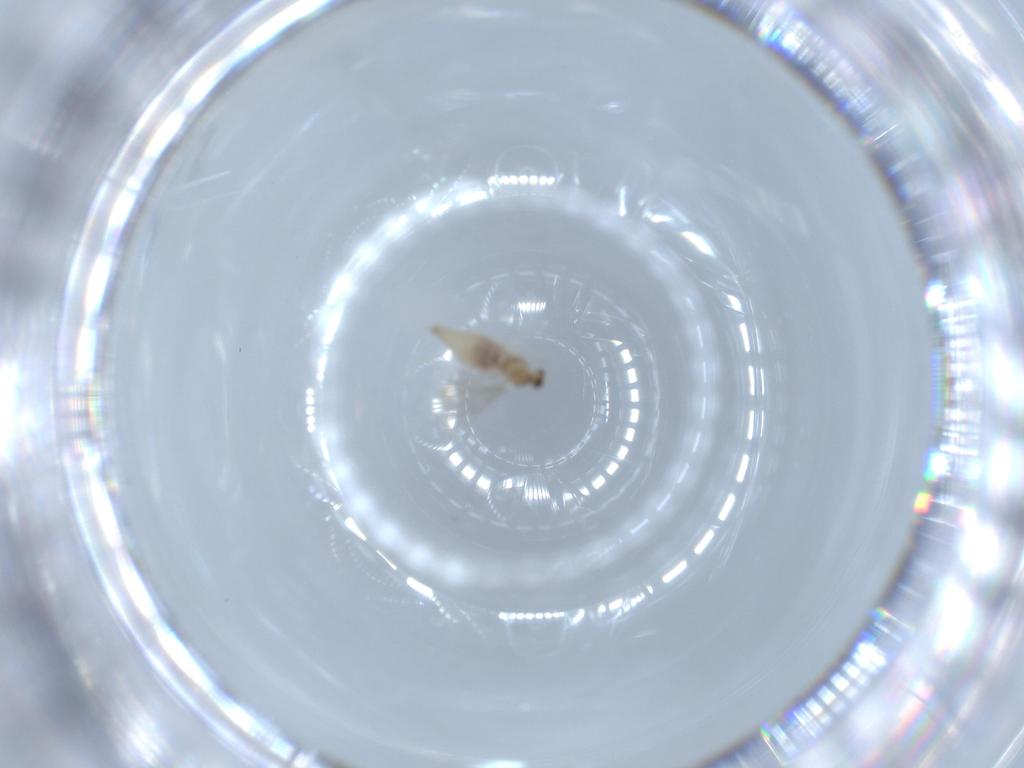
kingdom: Animalia
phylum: Arthropoda
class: Insecta
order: Diptera
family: Cecidomyiidae
